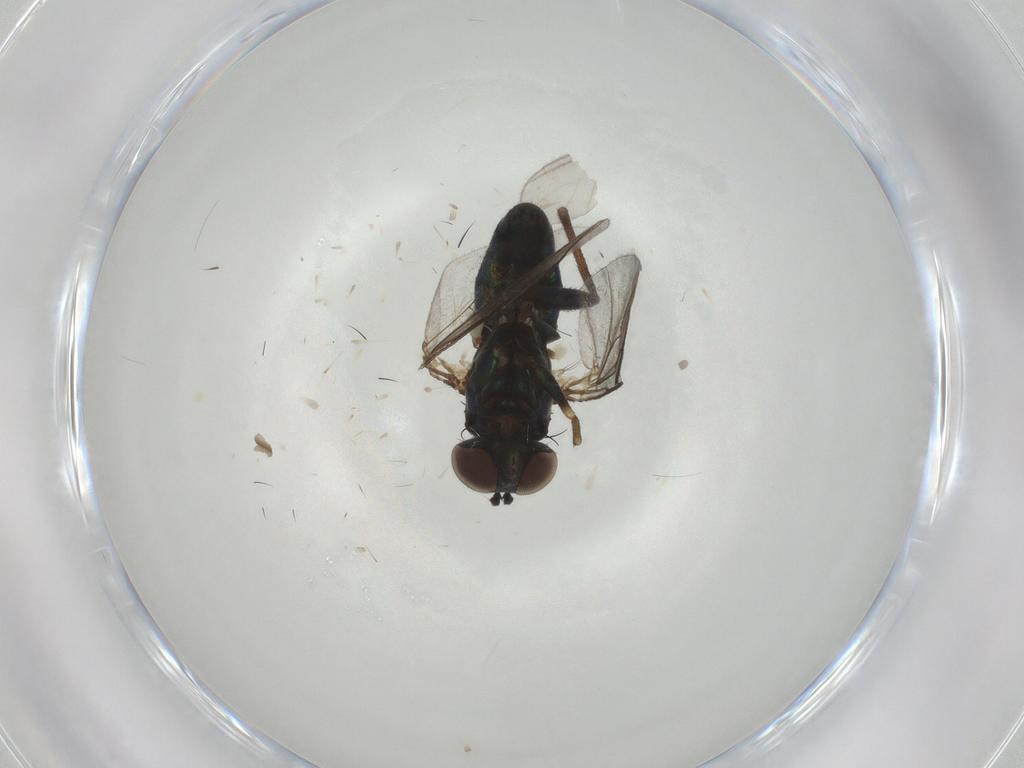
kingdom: Animalia
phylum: Arthropoda
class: Insecta
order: Diptera
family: Dolichopodidae
